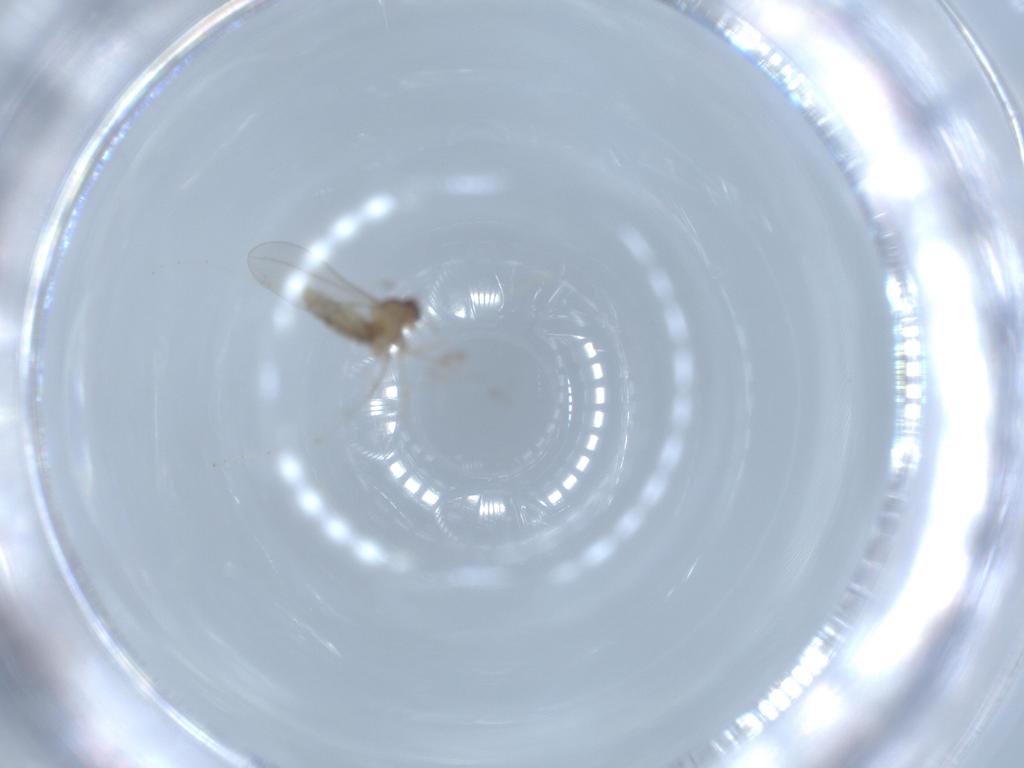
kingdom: Animalia
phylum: Arthropoda
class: Insecta
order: Diptera
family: Cecidomyiidae
